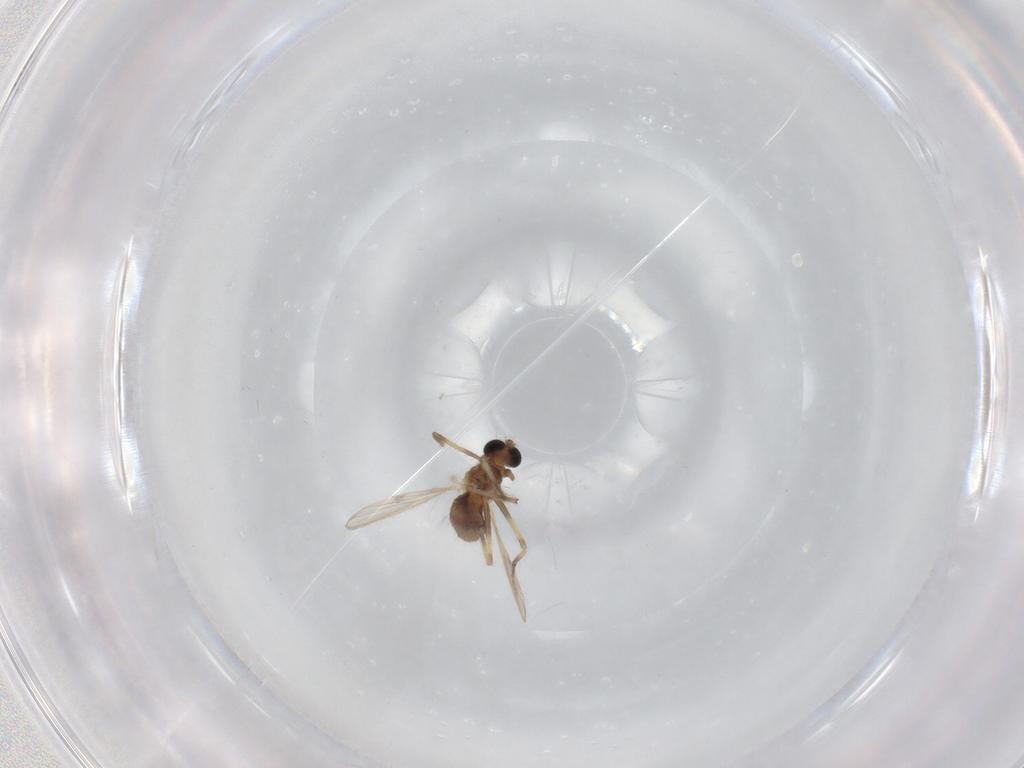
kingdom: Animalia
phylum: Arthropoda
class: Insecta
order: Diptera
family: Chironomidae
